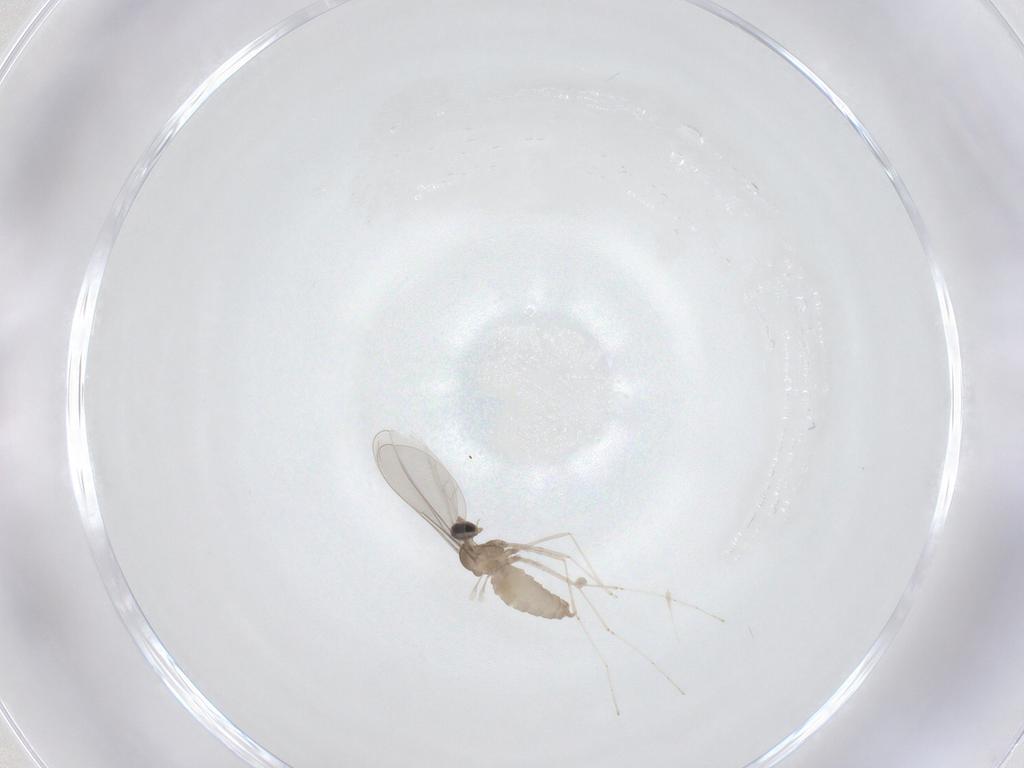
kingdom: Animalia
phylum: Arthropoda
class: Insecta
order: Diptera
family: Cecidomyiidae
